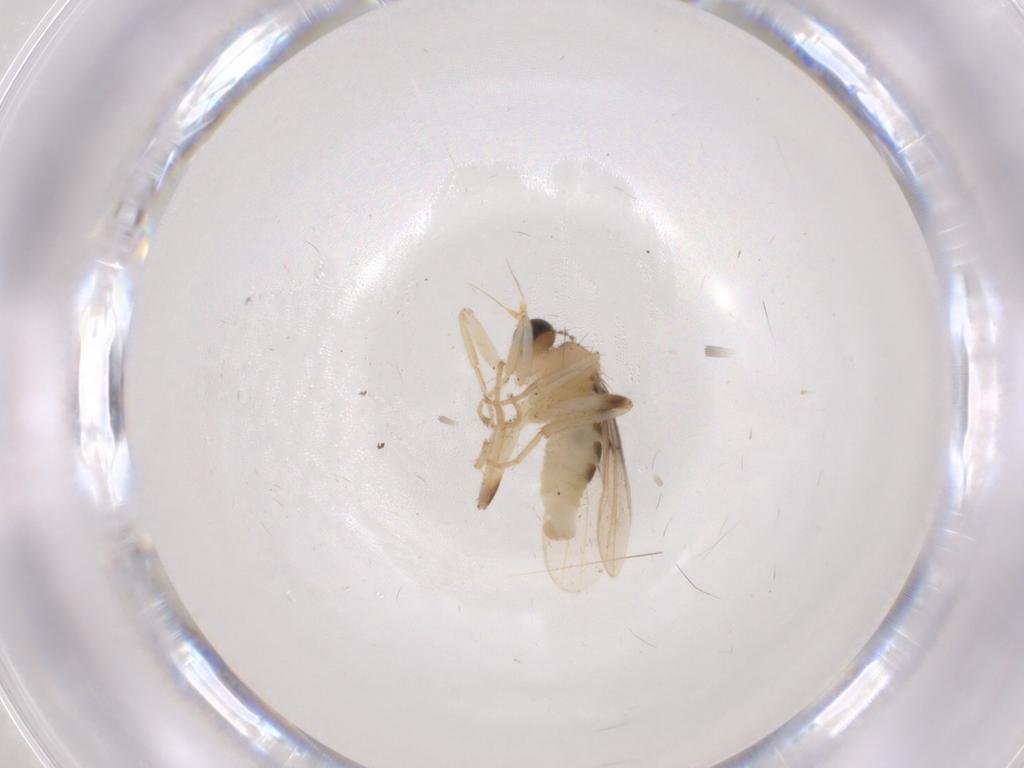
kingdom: Animalia
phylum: Arthropoda
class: Insecta
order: Diptera
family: Hybotidae
